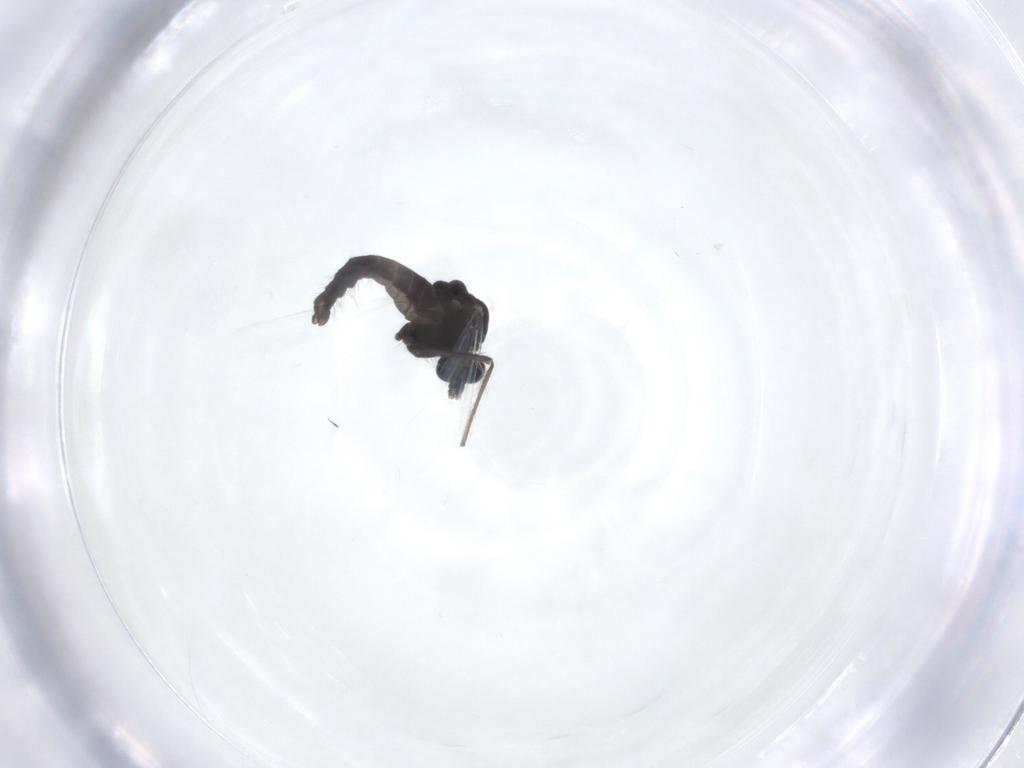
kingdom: Animalia
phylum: Arthropoda
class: Insecta
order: Diptera
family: Chironomidae
